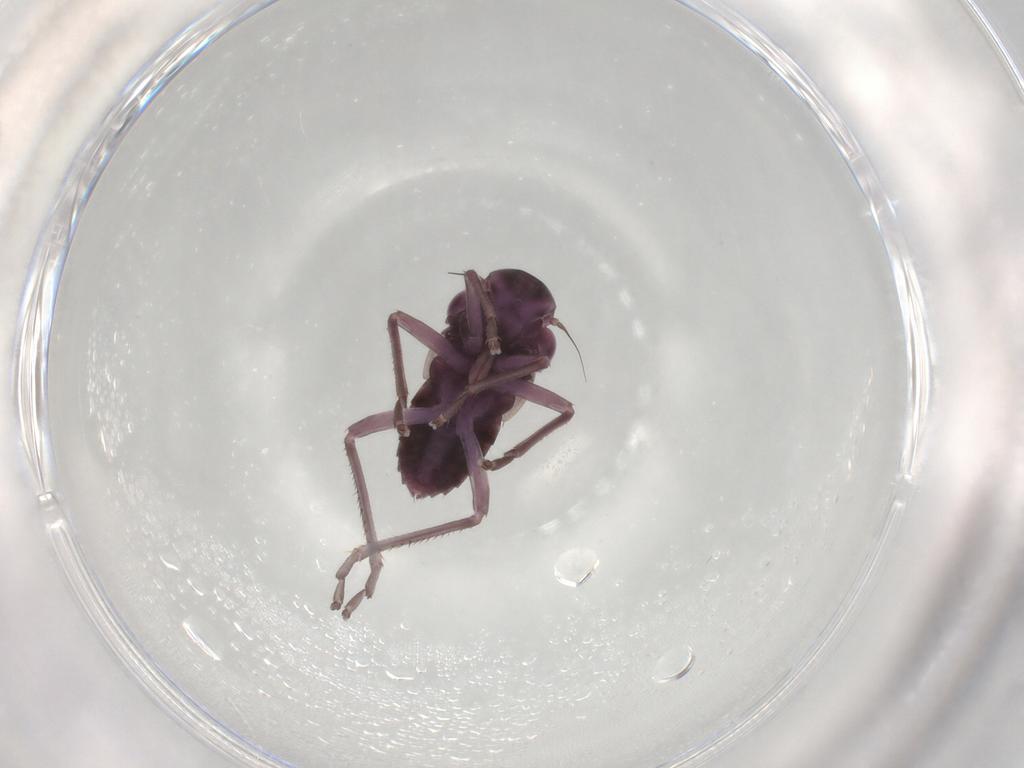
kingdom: Animalia
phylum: Arthropoda
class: Insecta
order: Hemiptera
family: Cicadellidae
